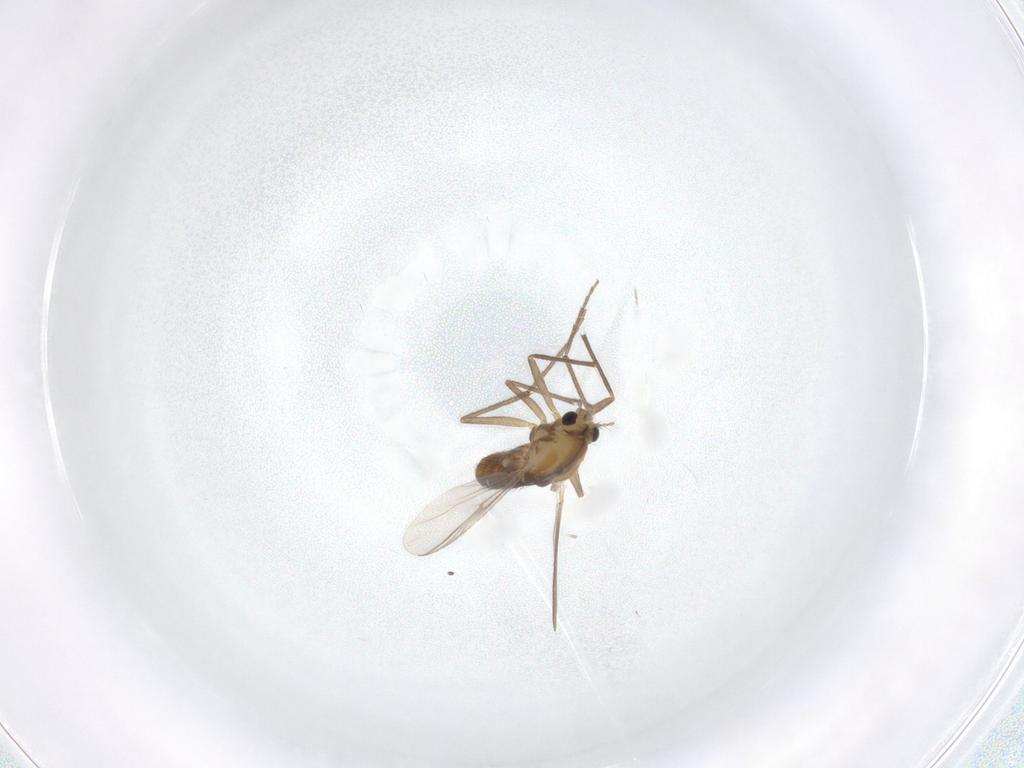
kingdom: Animalia
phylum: Arthropoda
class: Insecta
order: Diptera
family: Chironomidae
